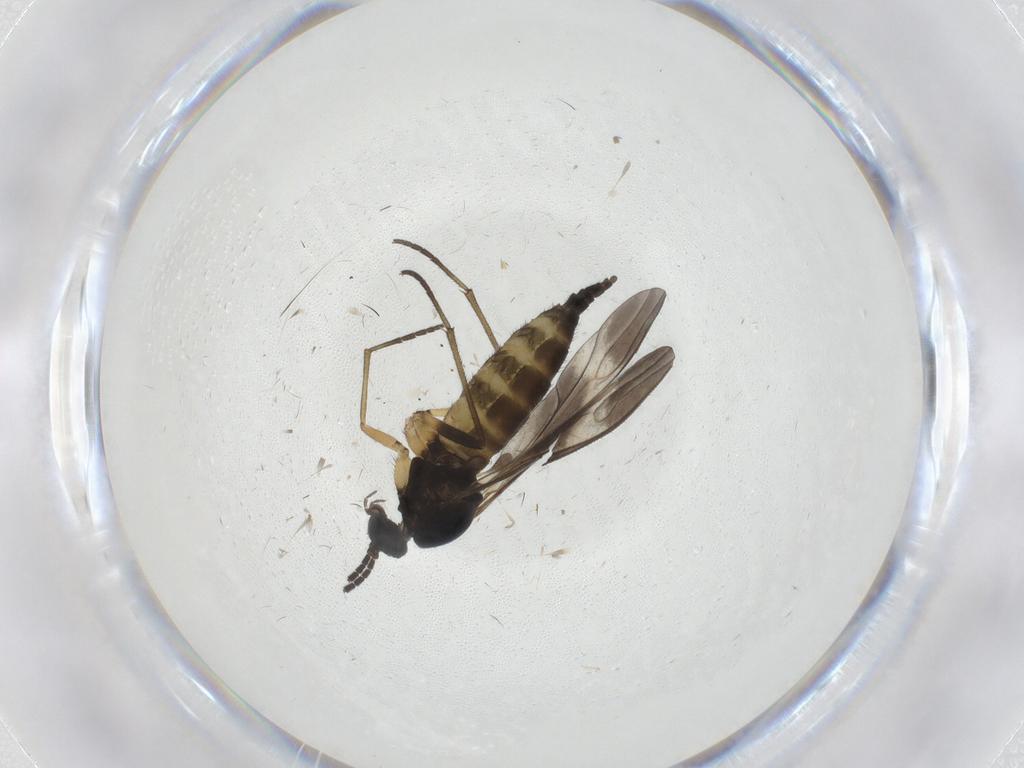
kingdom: Animalia
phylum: Arthropoda
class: Insecta
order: Diptera
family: Sciaridae
